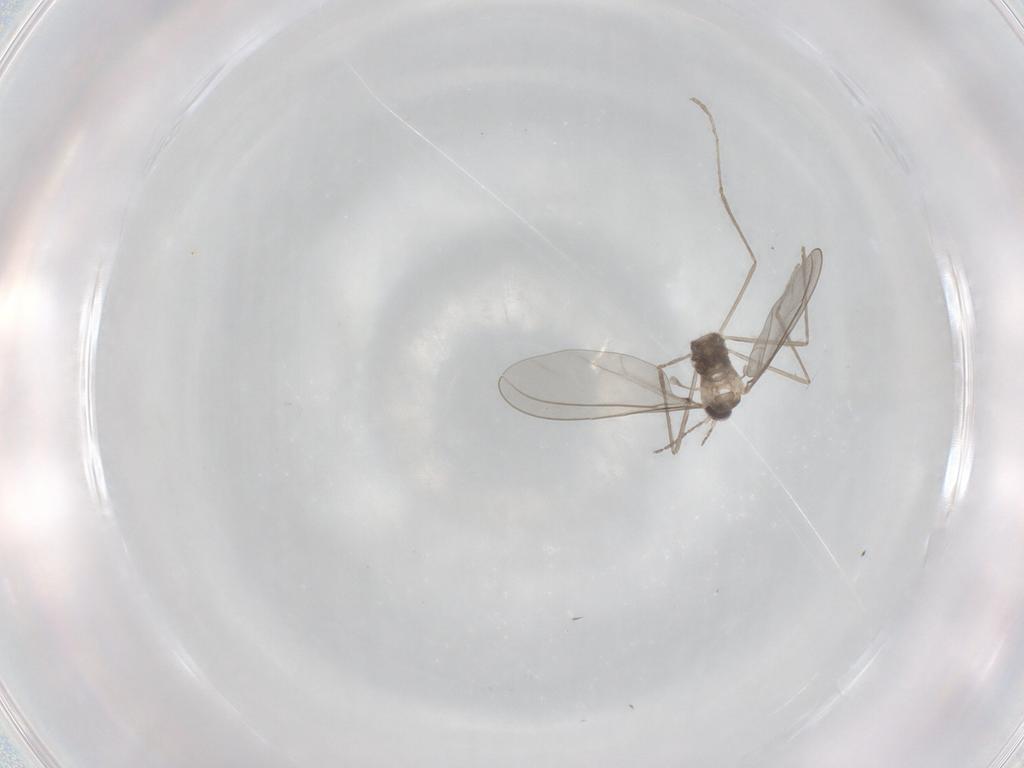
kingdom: Animalia
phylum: Arthropoda
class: Insecta
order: Diptera
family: Cecidomyiidae
